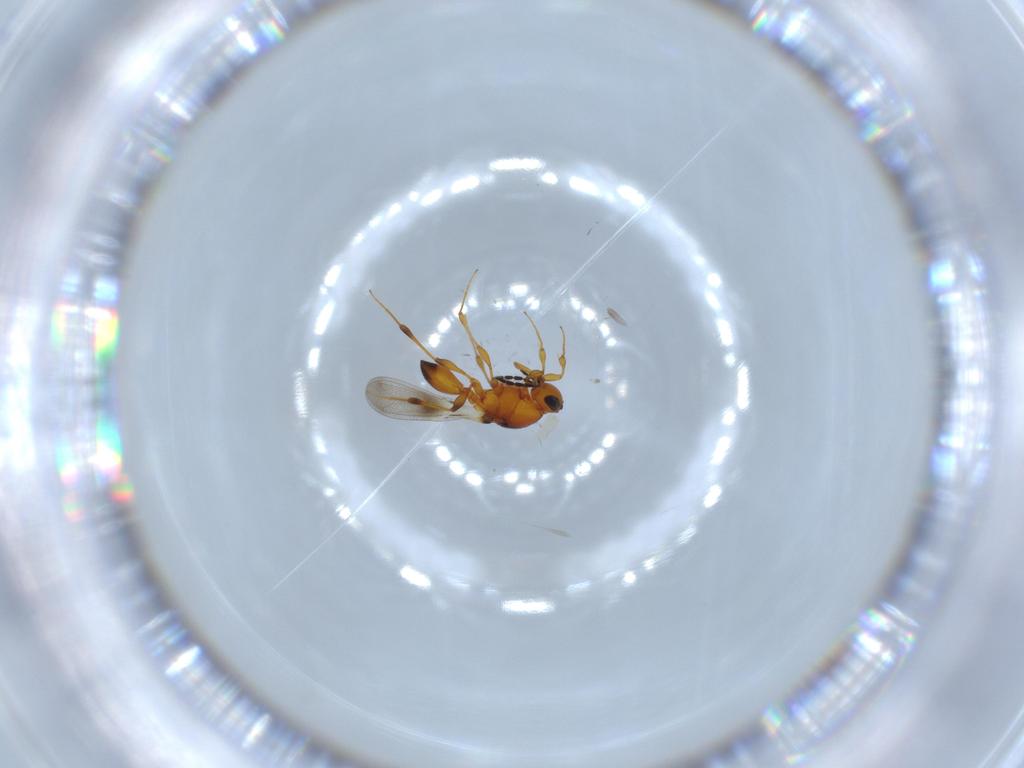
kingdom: Animalia
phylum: Arthropoda
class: Insecta
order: Hymenoptera
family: Platygastridae
